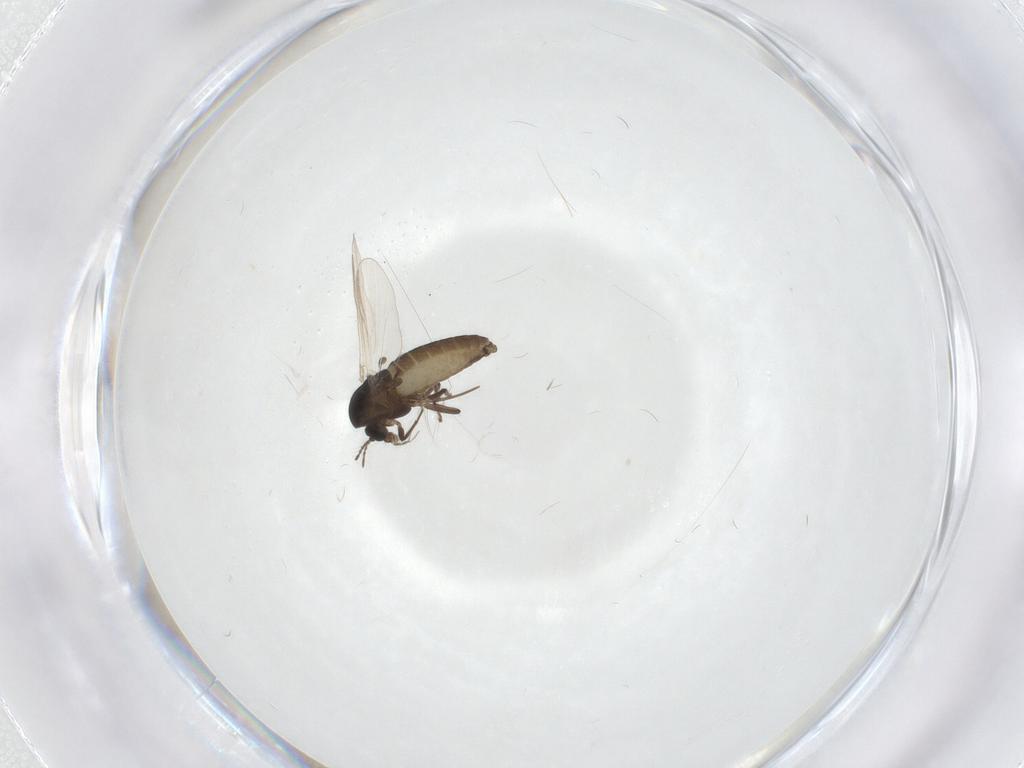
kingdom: Animalia
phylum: Arthropoda
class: Insecta
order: Diptera
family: Chironomidae
